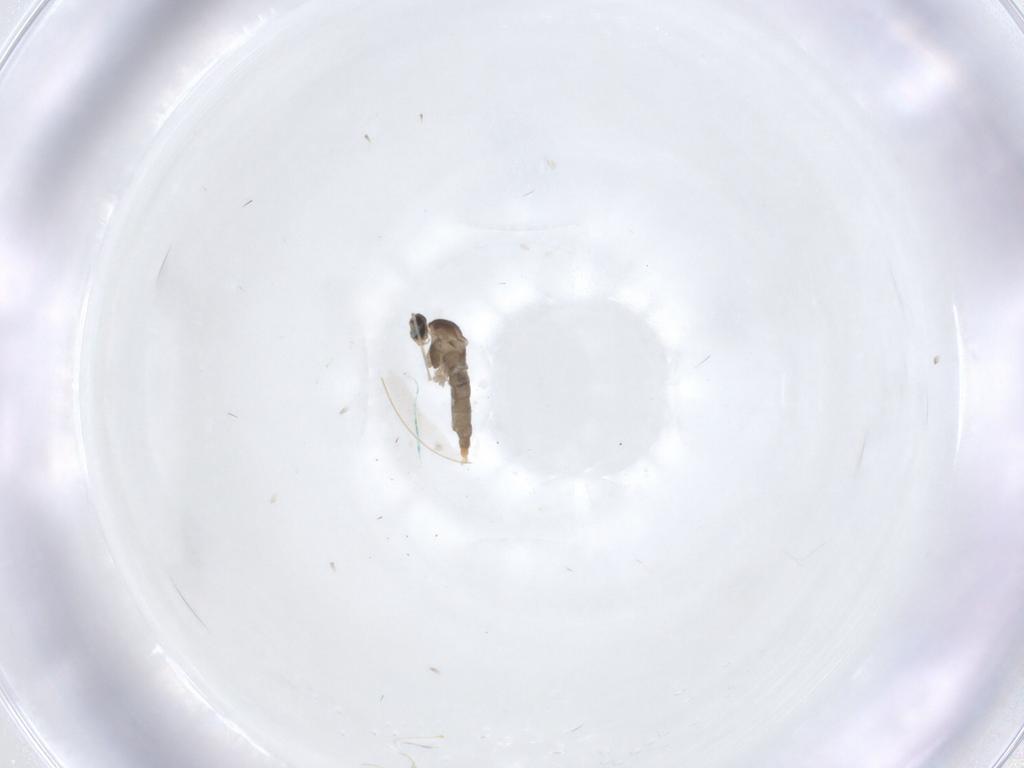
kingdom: Animalia
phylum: Arthropoda
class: Insecta
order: Diptera
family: Cecidomyiidae
